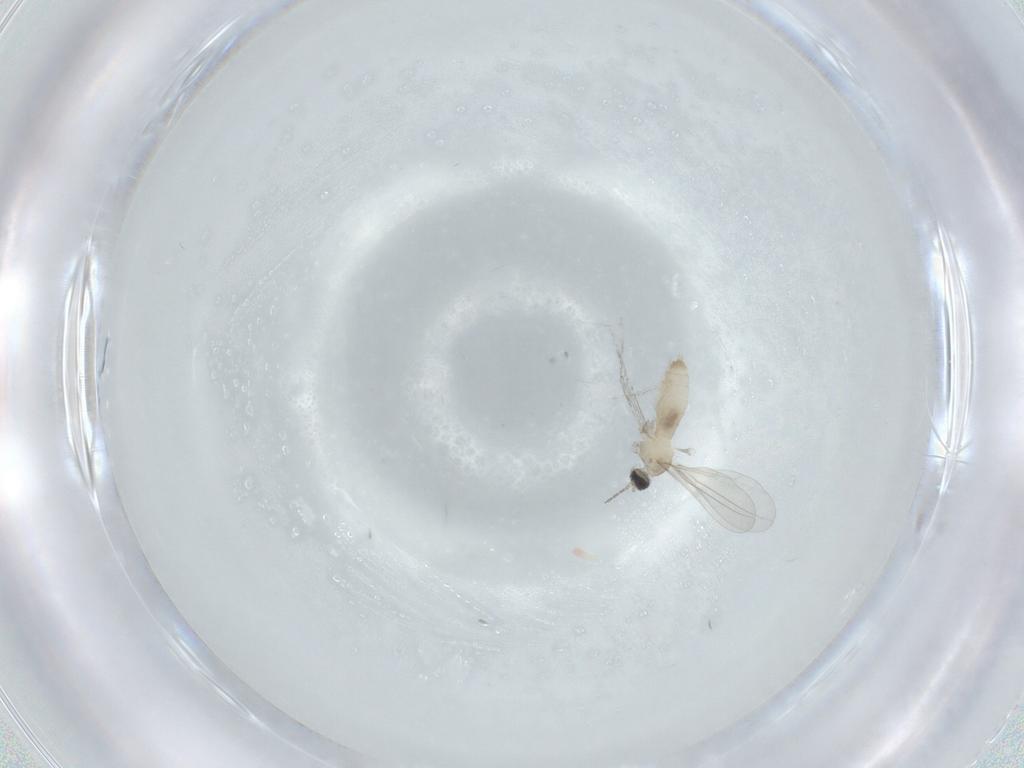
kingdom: Animalia
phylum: Arthropoda
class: Insecta
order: Diptera
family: Cecidomyiidae
